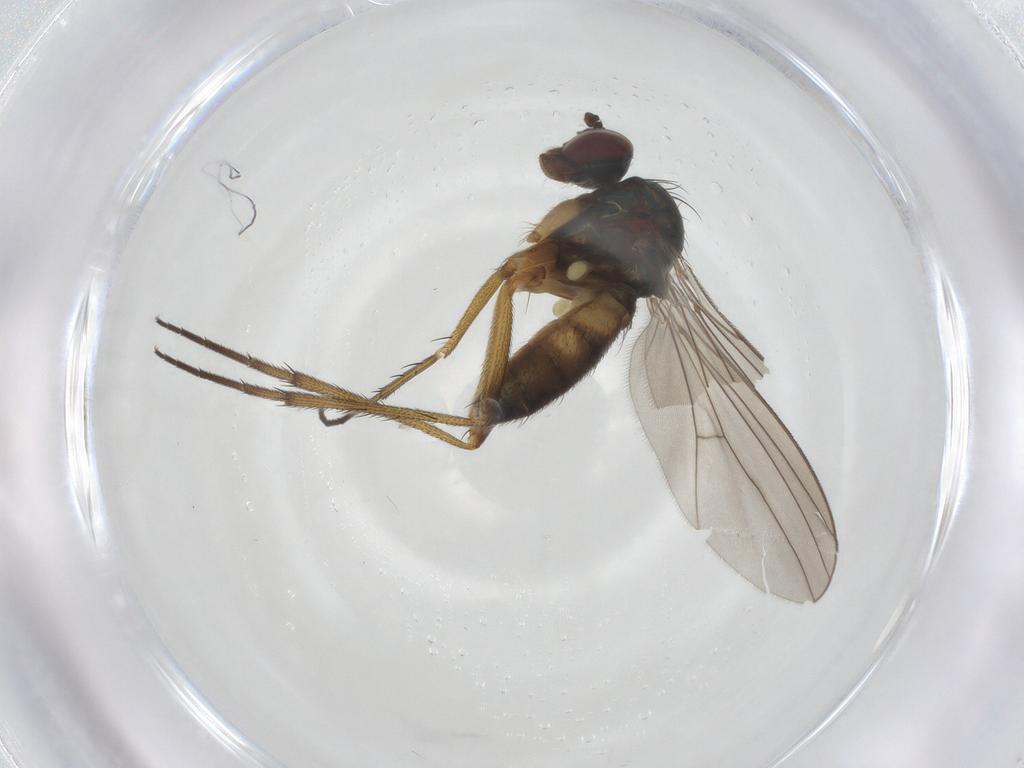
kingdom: Animalia
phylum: Arthropoda
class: Insecta
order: Diptera
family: Dolichopodidae
